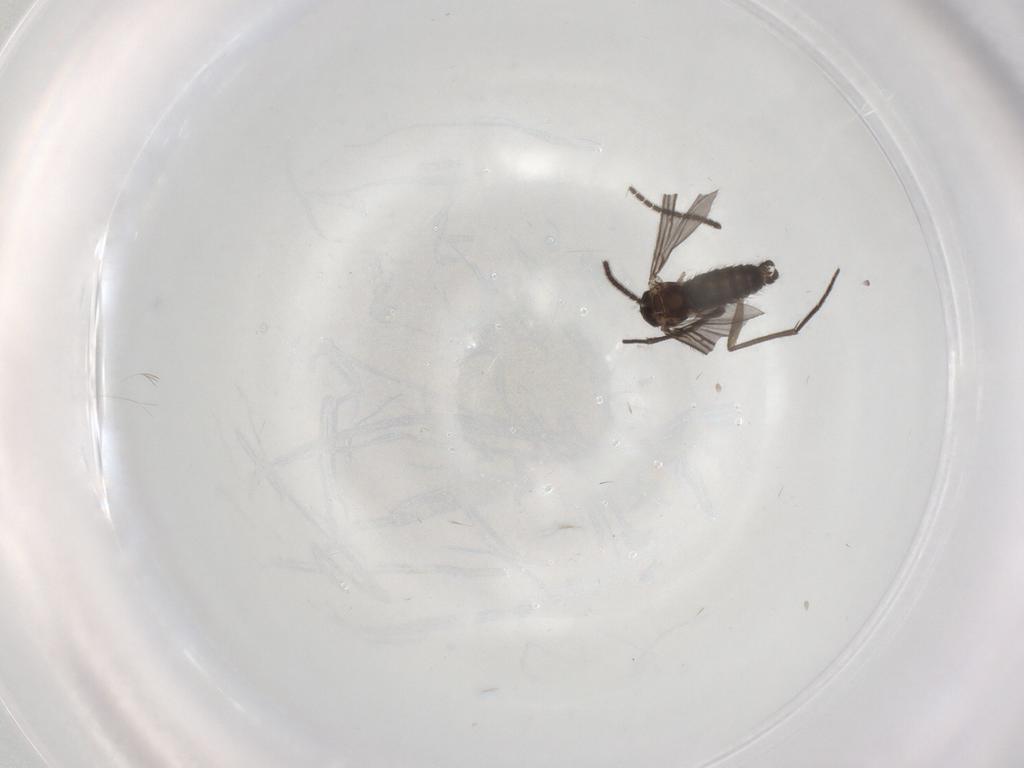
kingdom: Animalia
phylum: Arthropoda
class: Insecta
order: Diptera
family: Sciaridae
